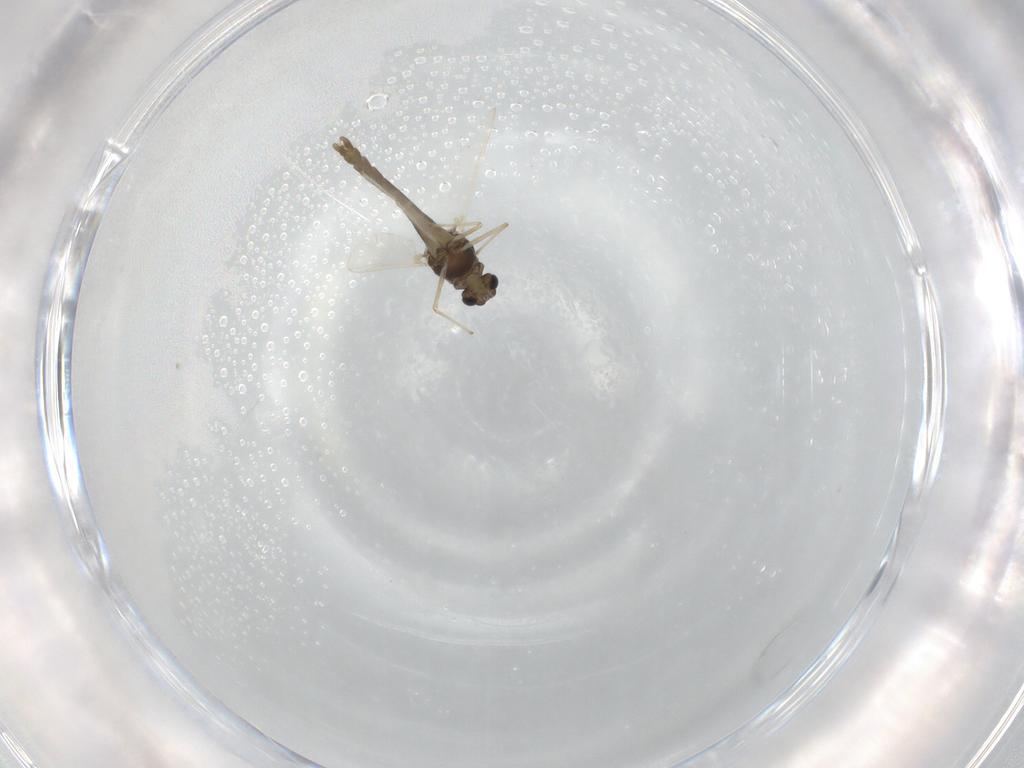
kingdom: Animalia
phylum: Arthropoda
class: Insecta
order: Diptera
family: Cecidomyiidae
